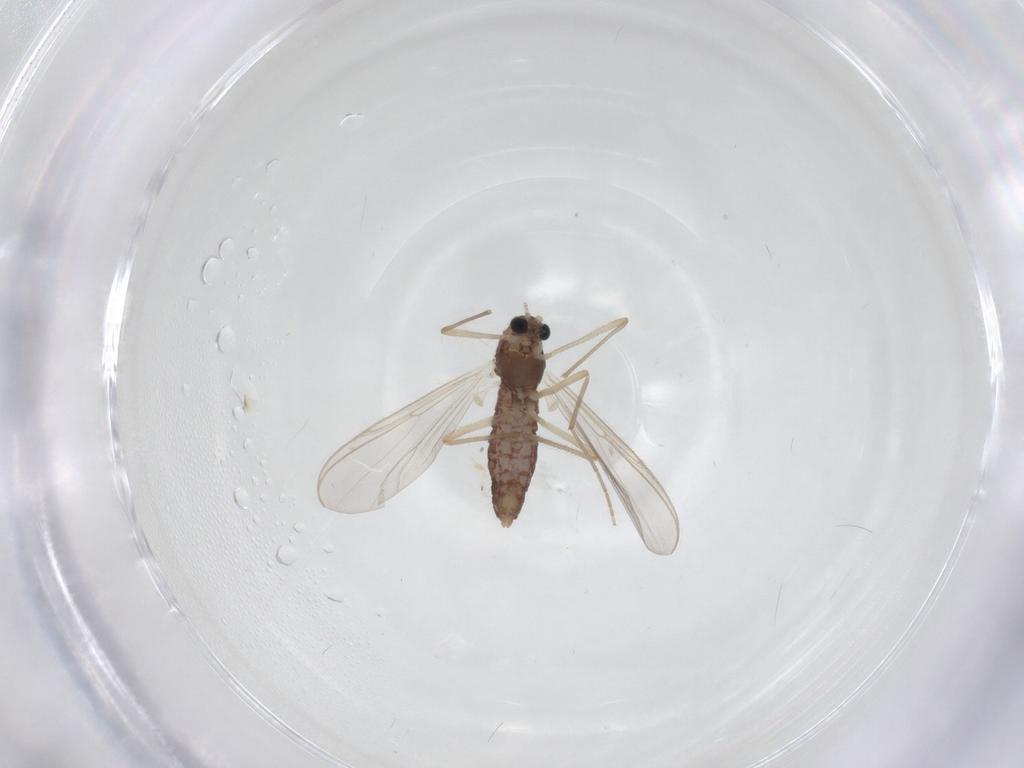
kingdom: Animalia
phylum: Arthropoda
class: Insecta
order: Diptera
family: Chironomidae
